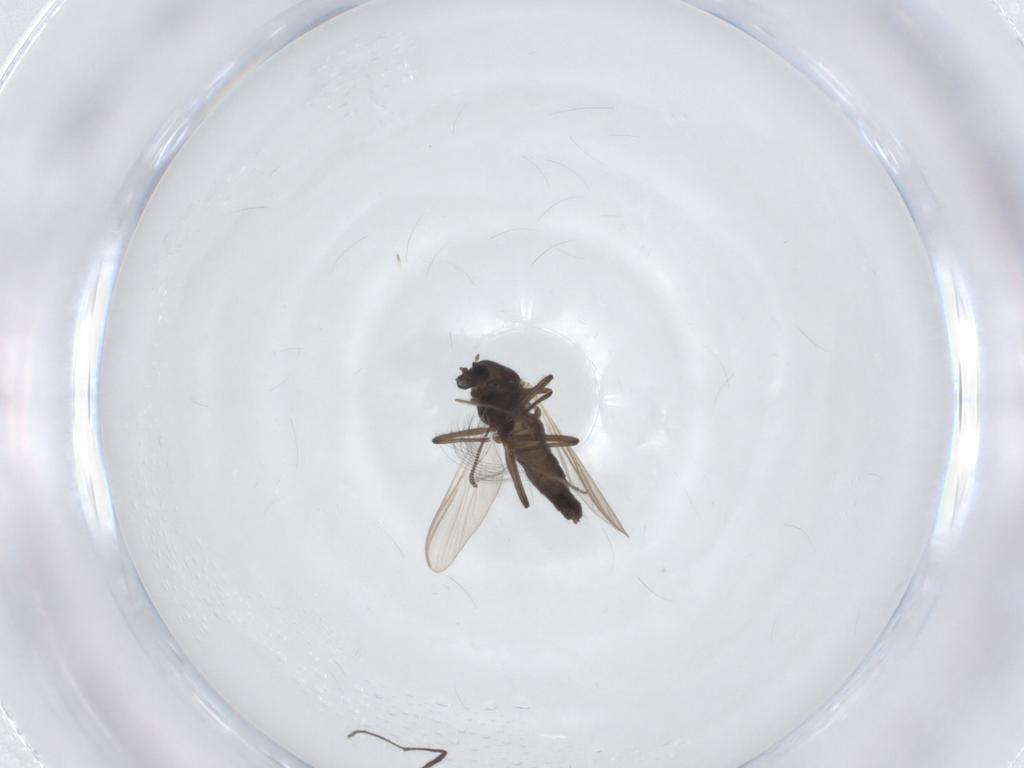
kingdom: Animalia
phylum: Arthropoda
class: Insecta
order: Diptera
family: Chironomidae
